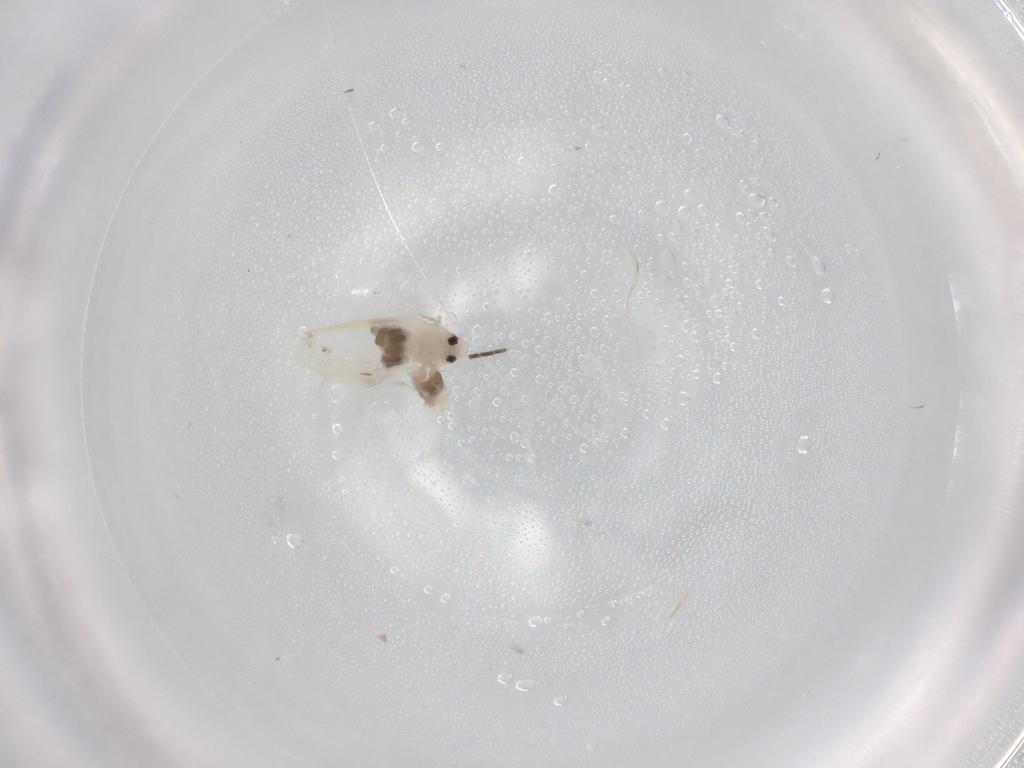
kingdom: Animalia
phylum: Arthropoda
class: Insecta
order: Hemiptera
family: Aleyrodidae
